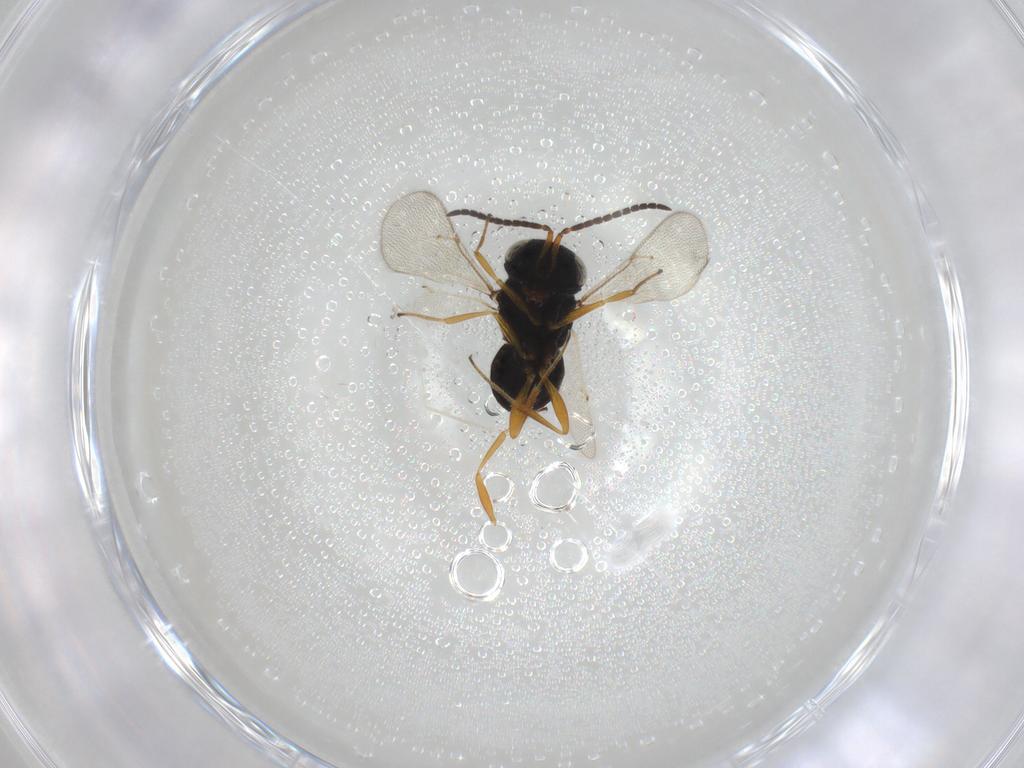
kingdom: Animalia
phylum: Arthropoda
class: Insecta
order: Hymenoptera
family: Scelionidae
